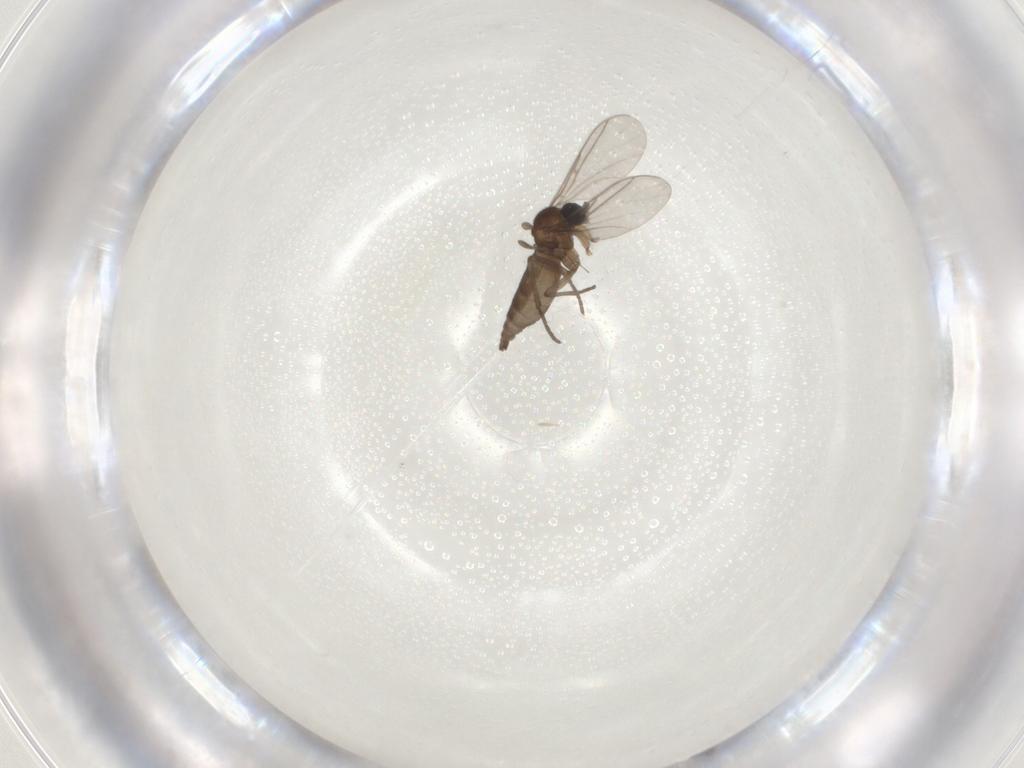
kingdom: Animalia
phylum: Arthropoda
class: Insecta
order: Diptera
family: Sciaridae
